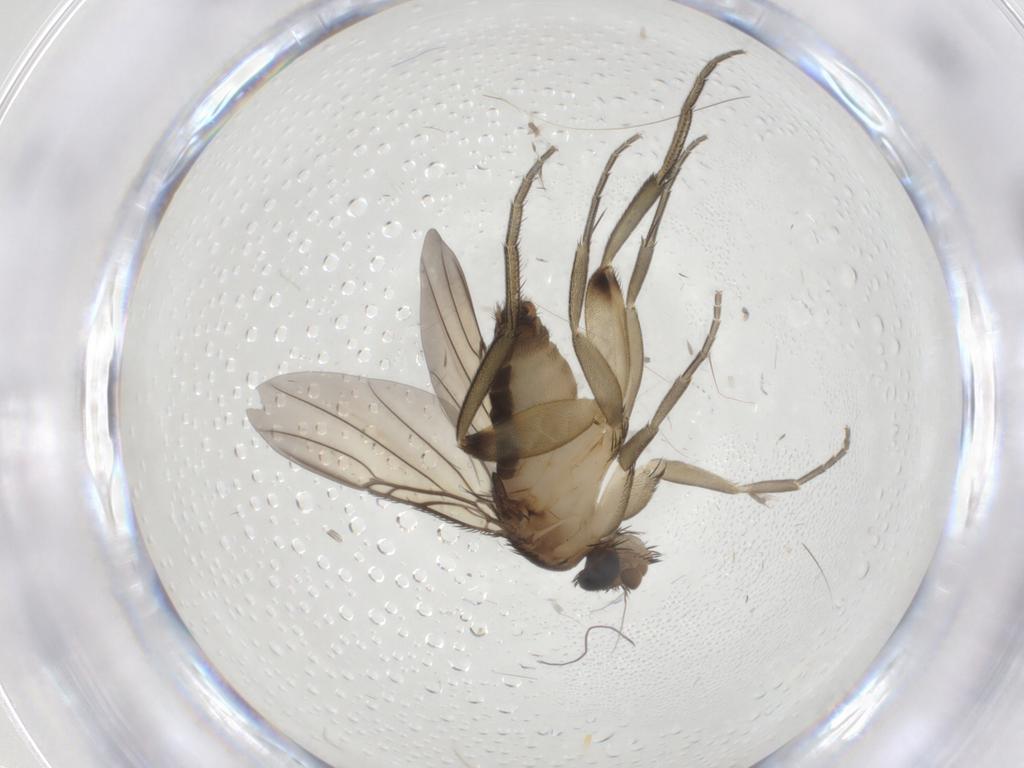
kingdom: Animalia
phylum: Arthropoda
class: Insecta
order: Diptera
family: Phoridae
